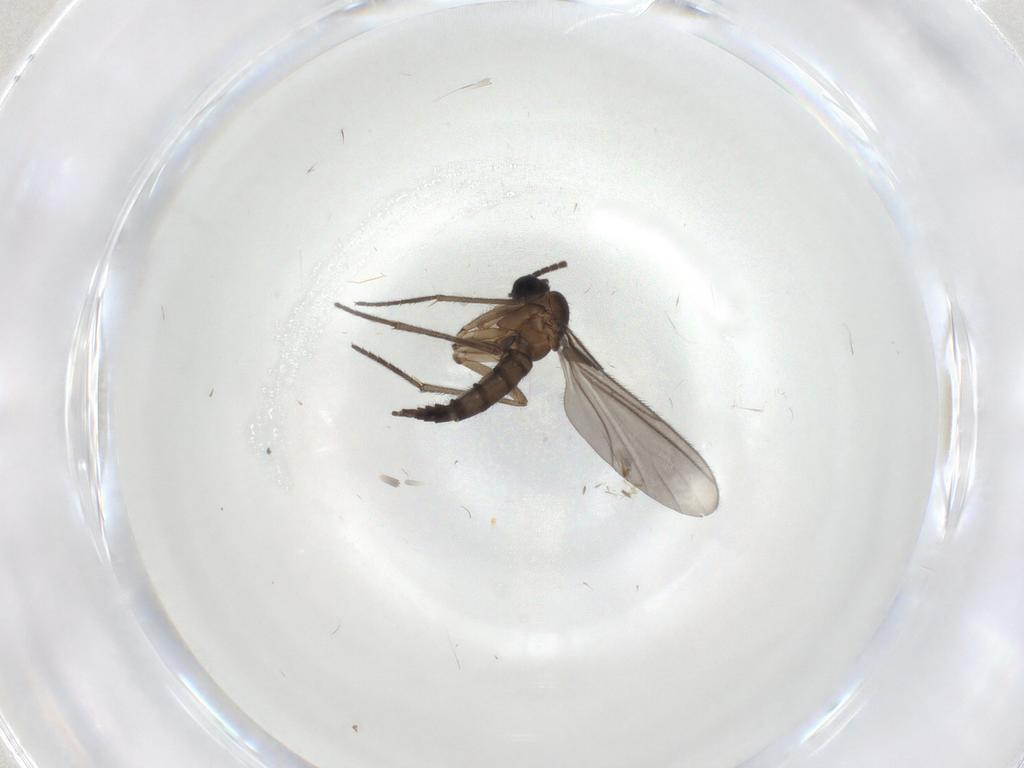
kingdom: Animalia
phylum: Arthropoda
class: Insecta
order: Diptera
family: Sciaridae
